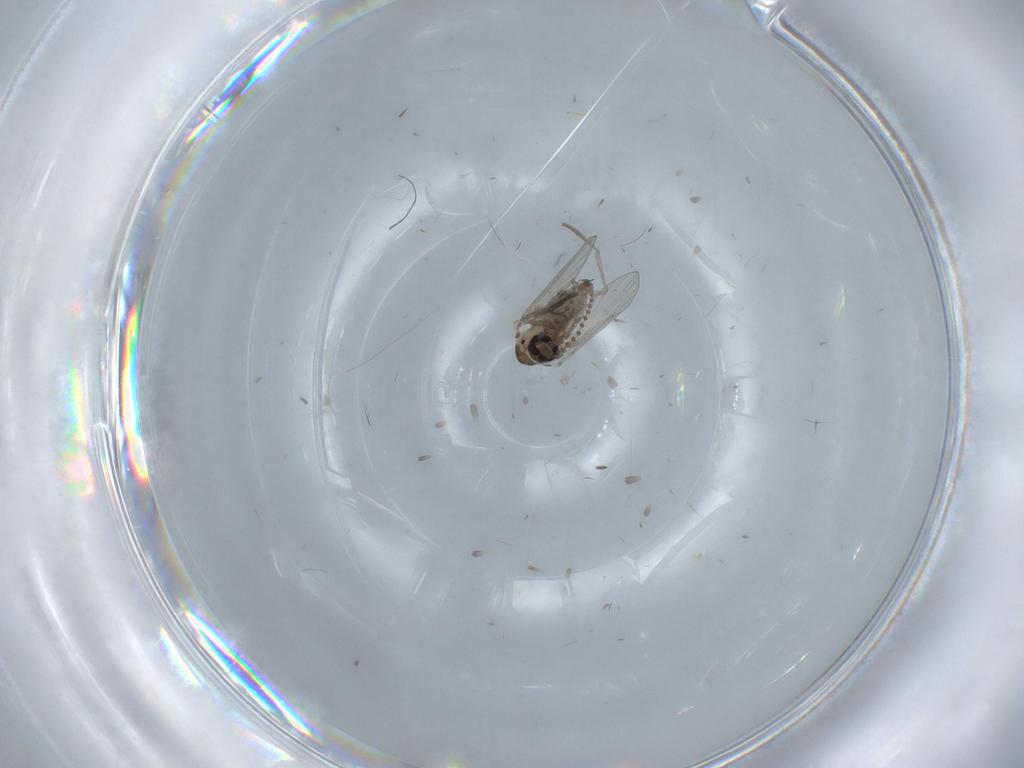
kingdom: Animalia
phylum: Arthropoda
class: Insecta
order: Diptera
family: Psychodidae
